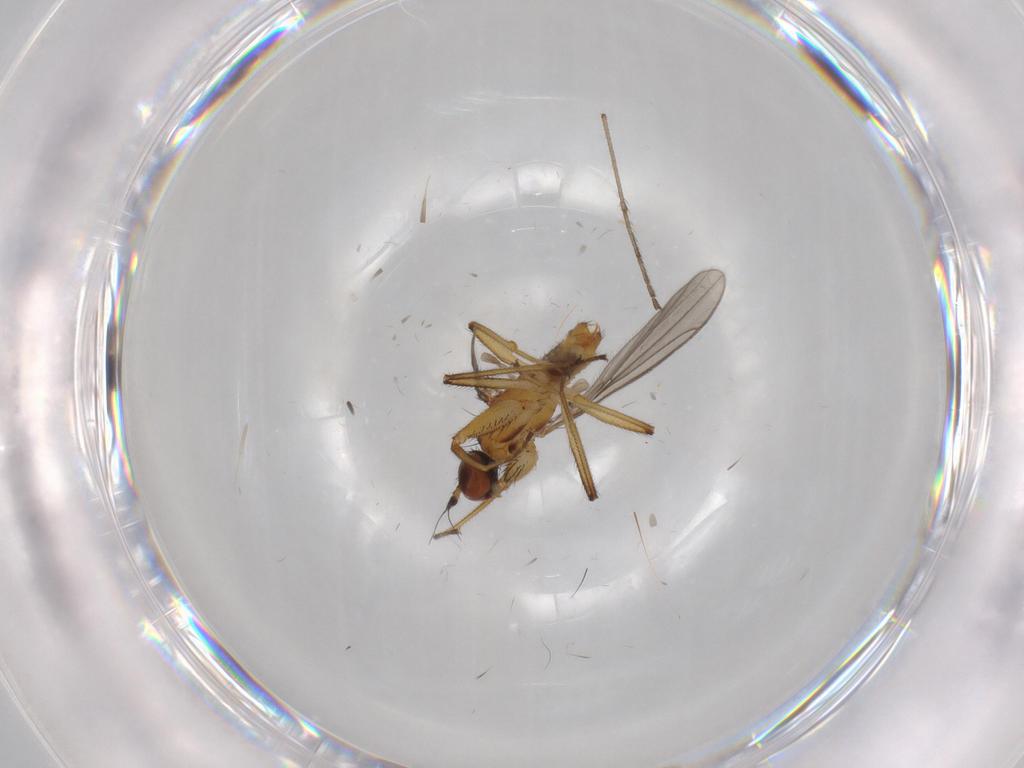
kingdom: Animalia
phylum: Arthropoda
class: Insecta
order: Diptera
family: Empididae
